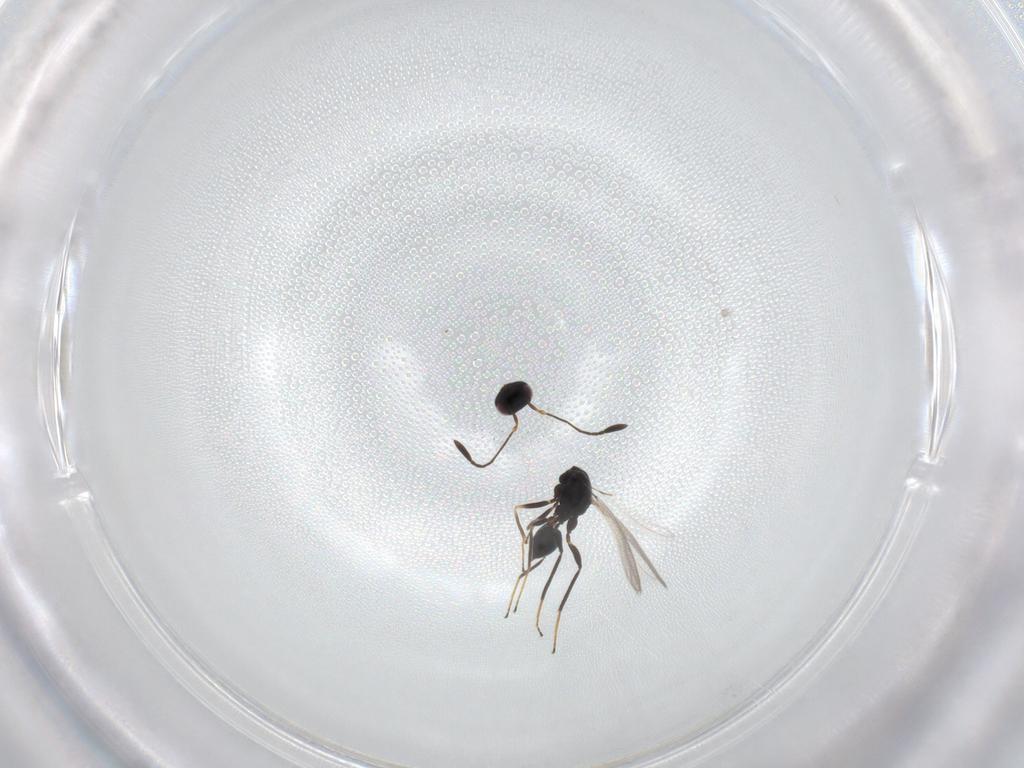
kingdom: Animalia
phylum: Arthropoda
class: Insecta
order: Hymenoptera
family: Mymaridae
